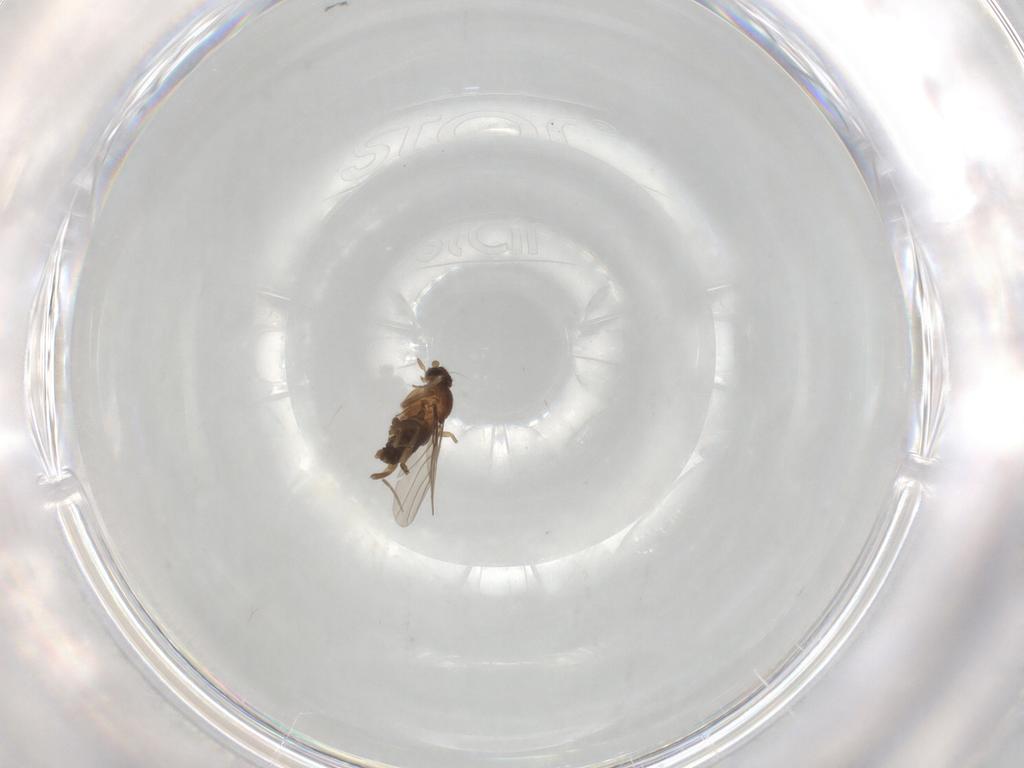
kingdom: Animalia
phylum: Arthropoda
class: Insecta
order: Diptera
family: Phoridae
